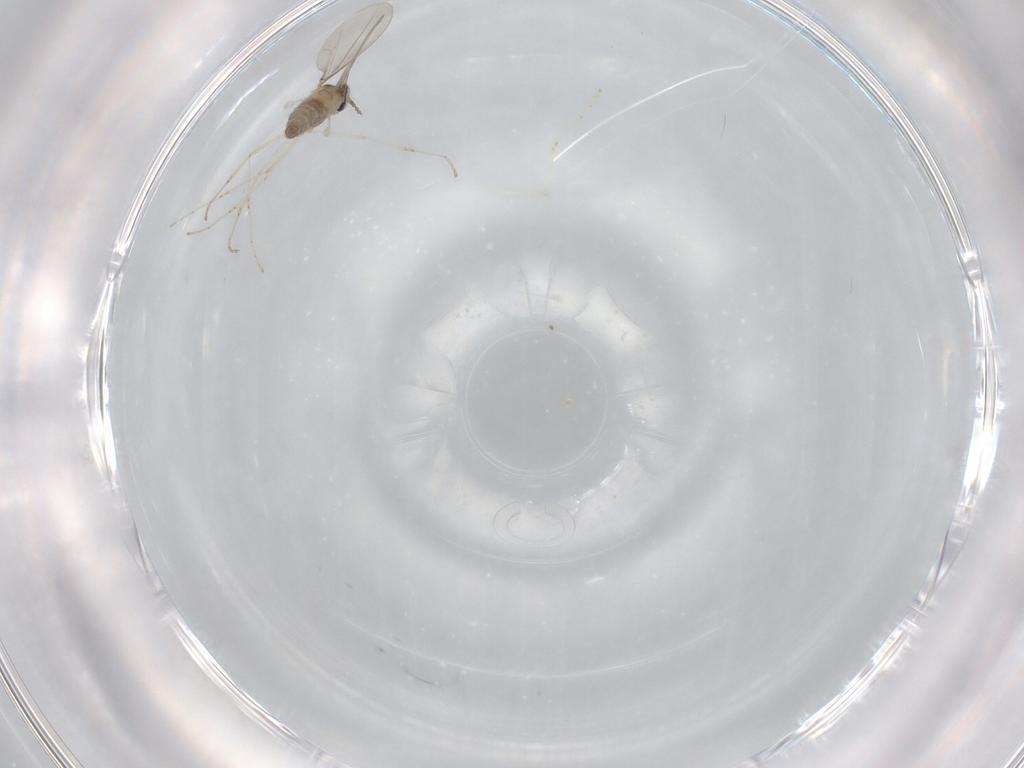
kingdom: Animalia
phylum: Arthropoda
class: Insecta
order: Diptera
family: Cecidomyiidae
